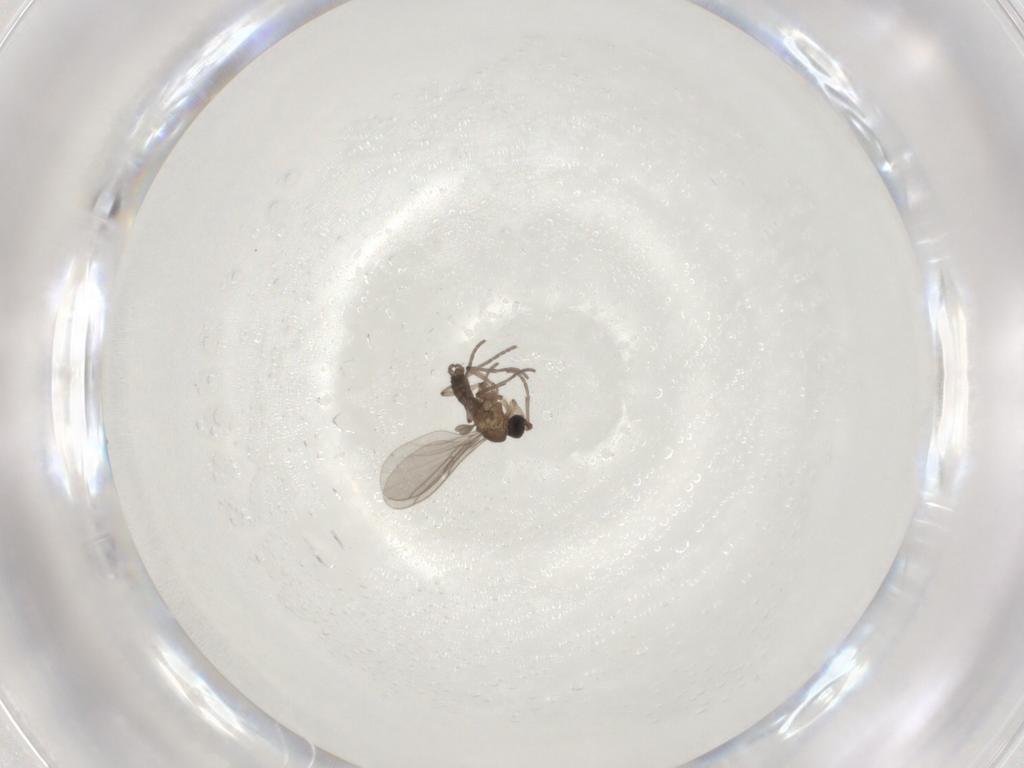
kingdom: Animalia
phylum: Arthropoda
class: Insecta
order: Diptera
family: Sciaridae
